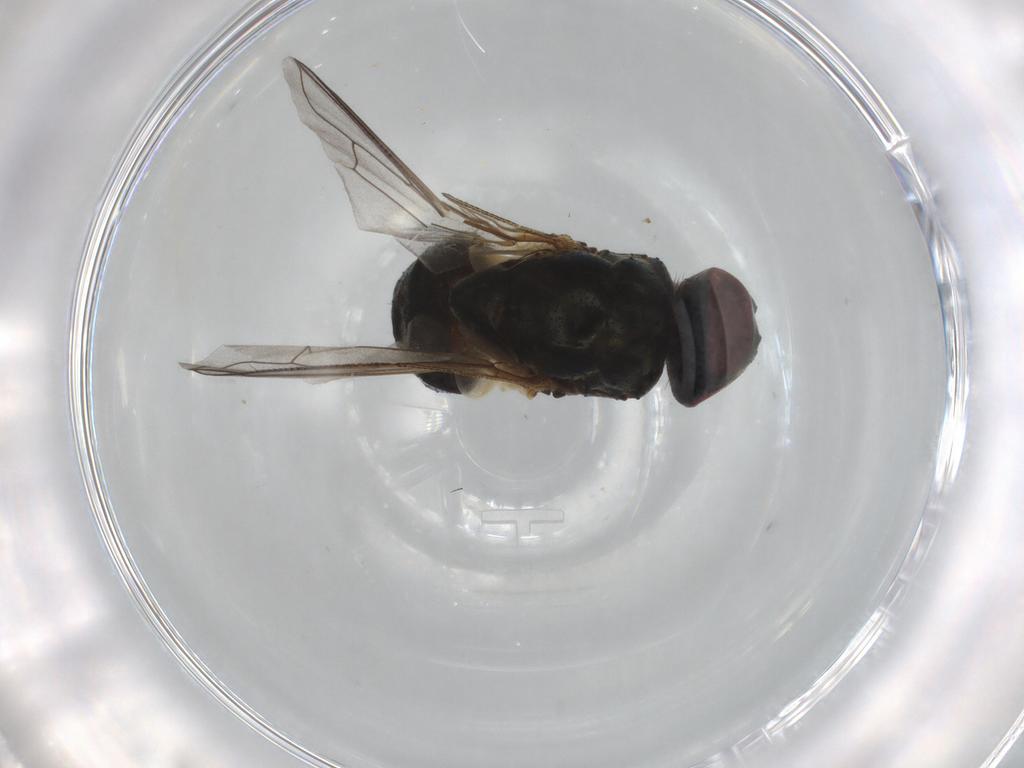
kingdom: Animalia
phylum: Arthropoda
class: Insecta
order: Diptera
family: Muscidae
